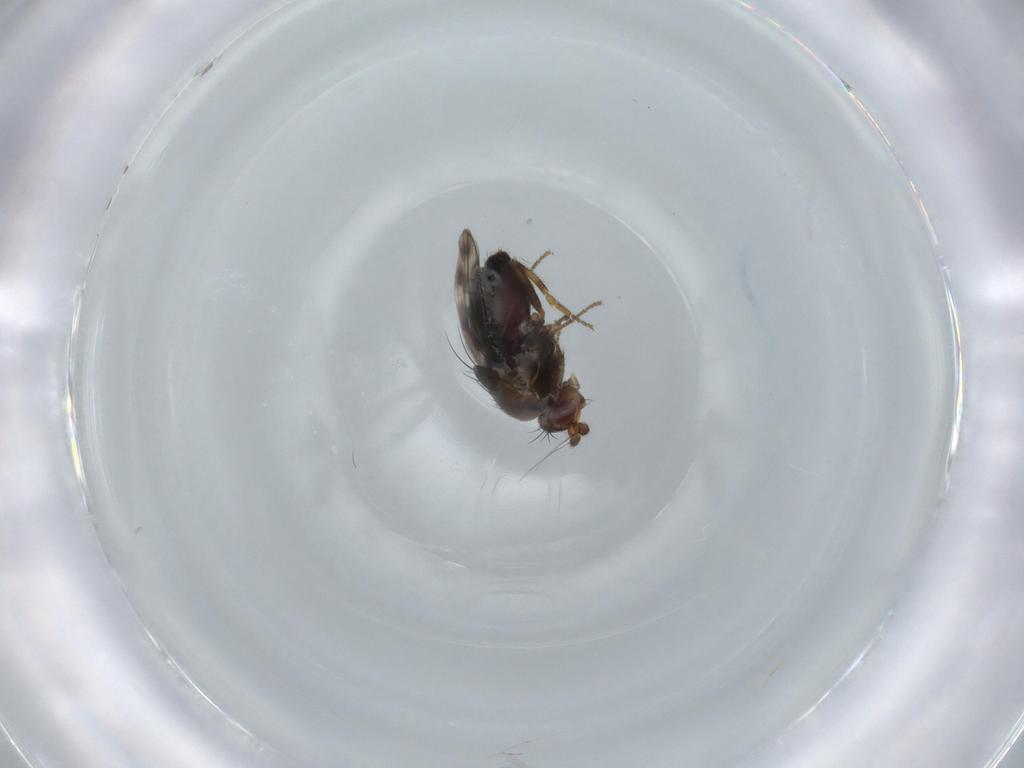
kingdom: Animalia
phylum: Arthropoda
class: Insecta
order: Diptera
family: Sphaeroceridae
